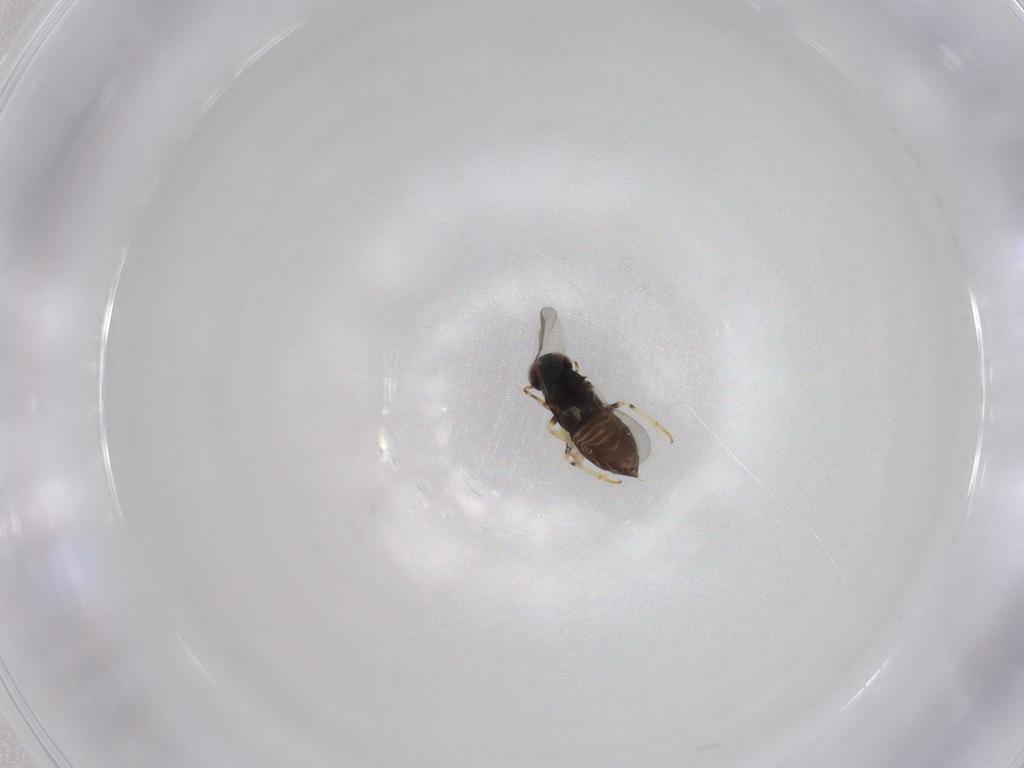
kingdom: Animalia
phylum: Arthropoda
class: Insecta
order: Hymenoptera
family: Encyrtidae
